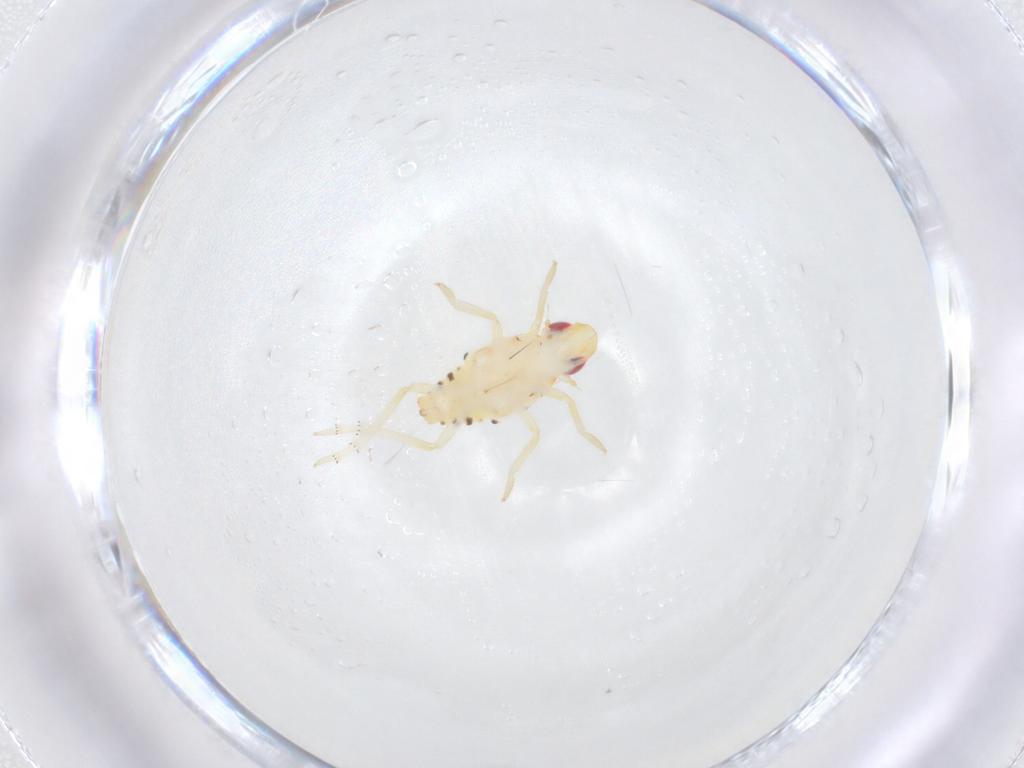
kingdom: Animalia
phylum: Arthropoda
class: Insecta
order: Hemiptera
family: Tropiduchidae
